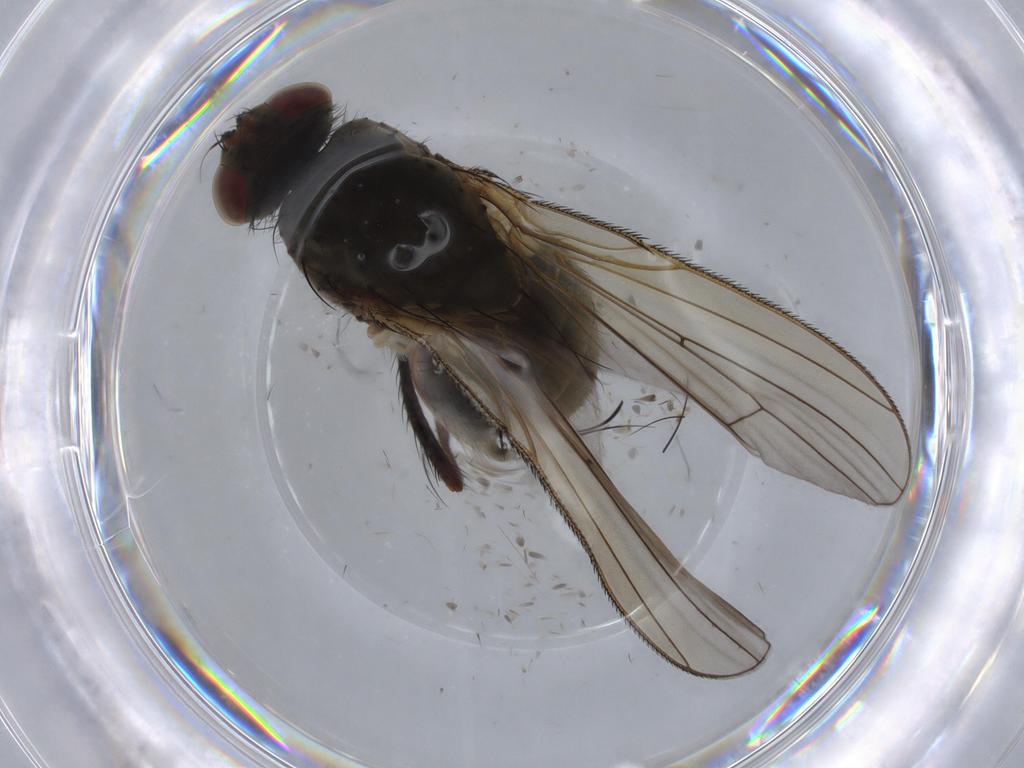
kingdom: Animalia
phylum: Arthropoda
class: Insecta
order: Diptera
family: Anthomyiidae
